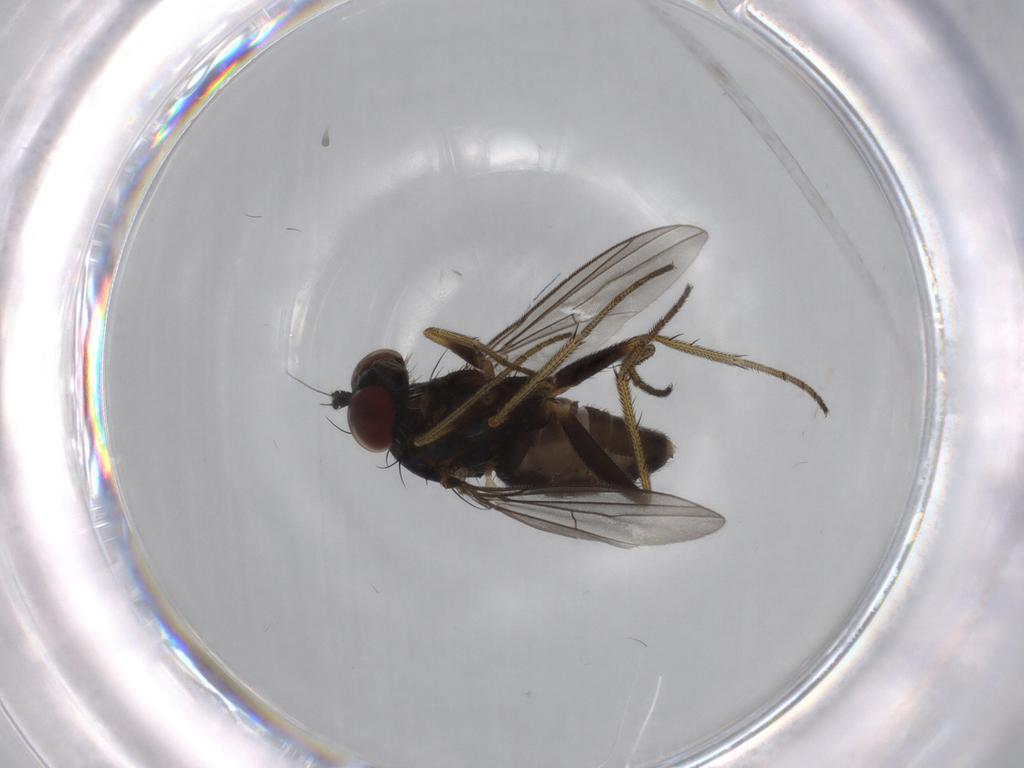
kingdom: Animalia
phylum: Arthropoda
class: Insecta
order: Diptera
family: Dolichopodidae
